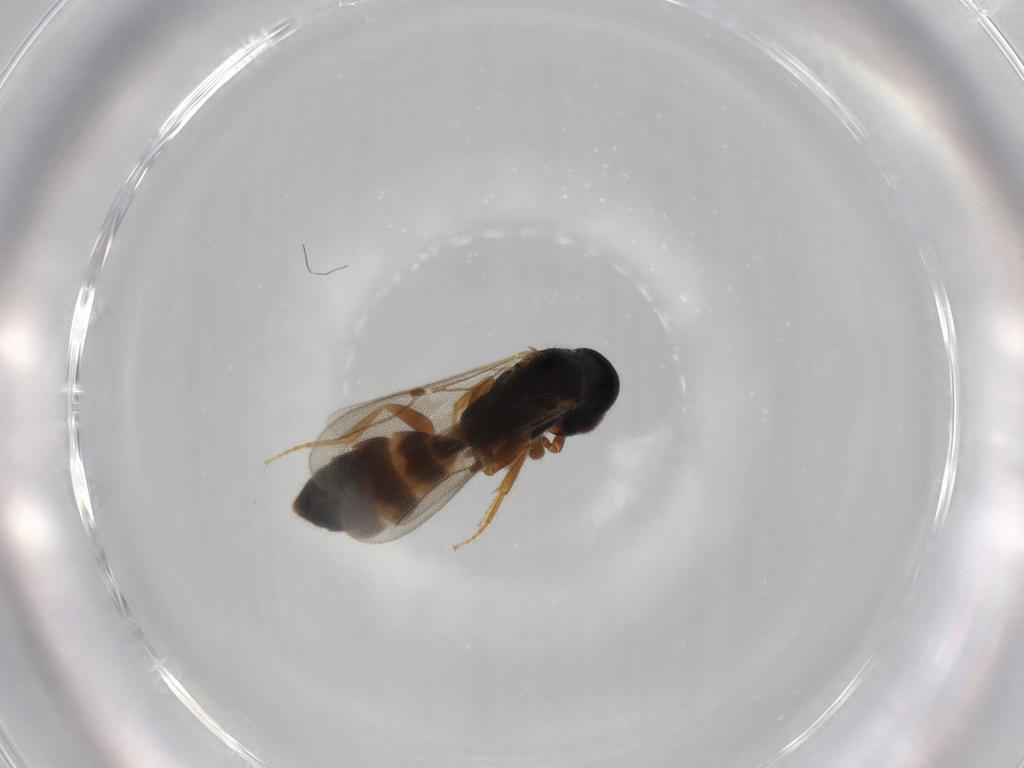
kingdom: Animalia
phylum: Arthropoda
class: Insecta
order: Hymenoptera
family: Bethylidae
